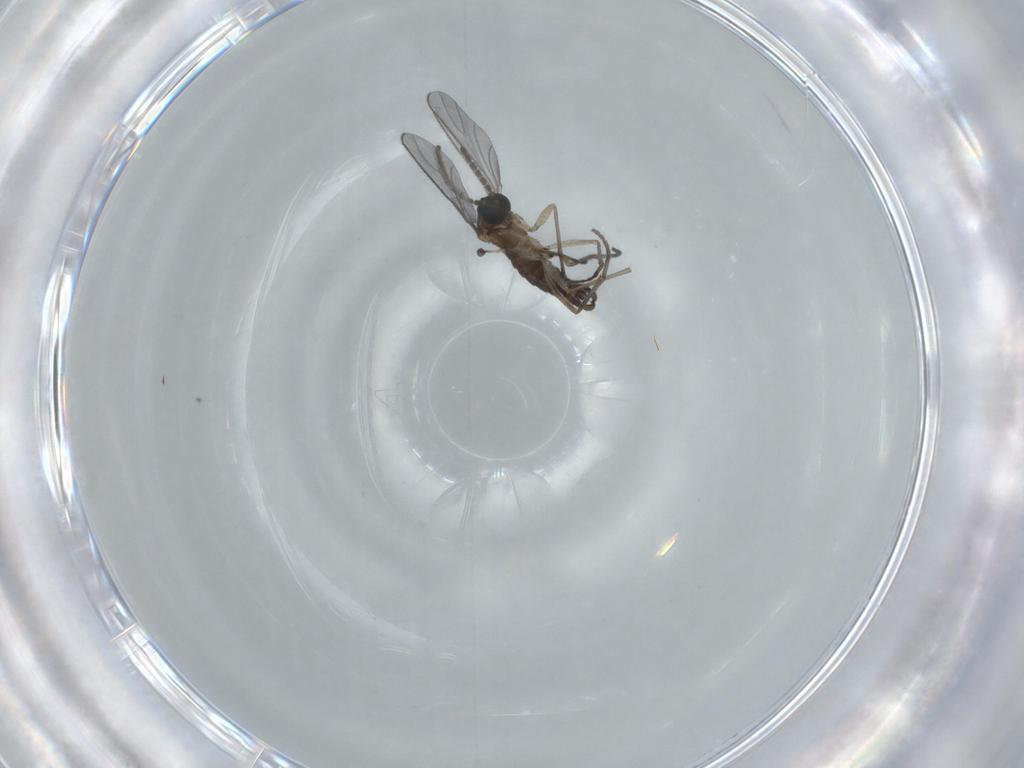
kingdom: Animalia
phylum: Arthropoda
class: Insecta
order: Diptera
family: Sciaridae
